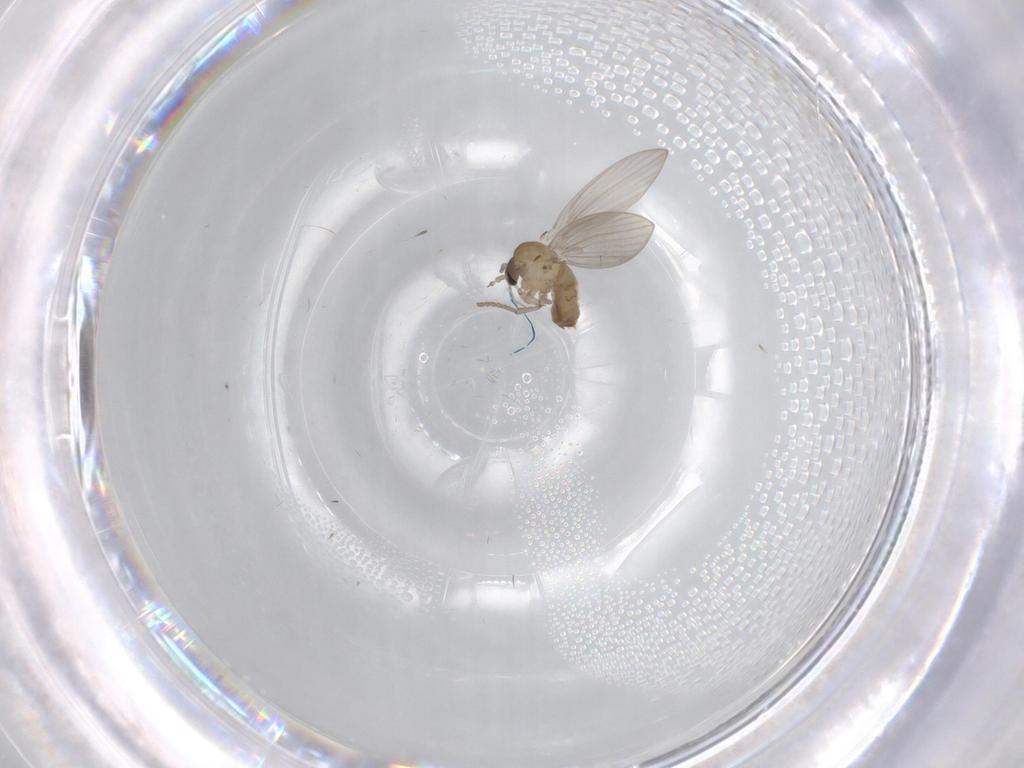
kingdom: Animalia
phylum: Arthropoda
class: Insecta
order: Diptera
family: Psychodidae
